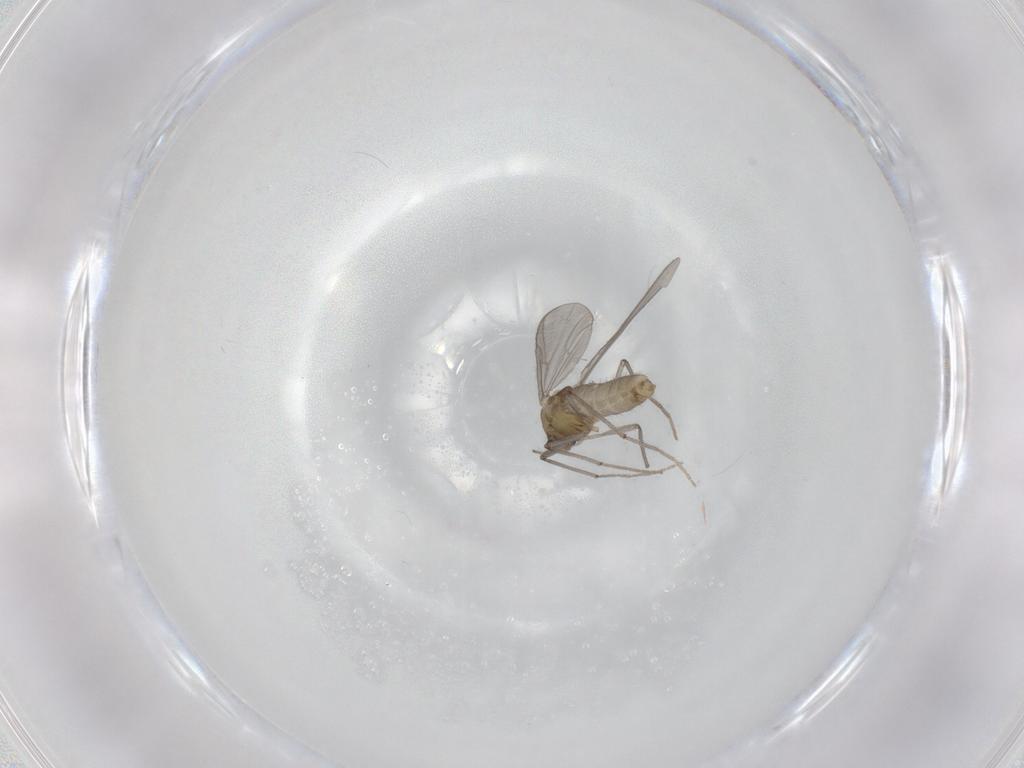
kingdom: Animalia
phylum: Arthropoda
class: Insecta
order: Diptera
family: Chironomidae
